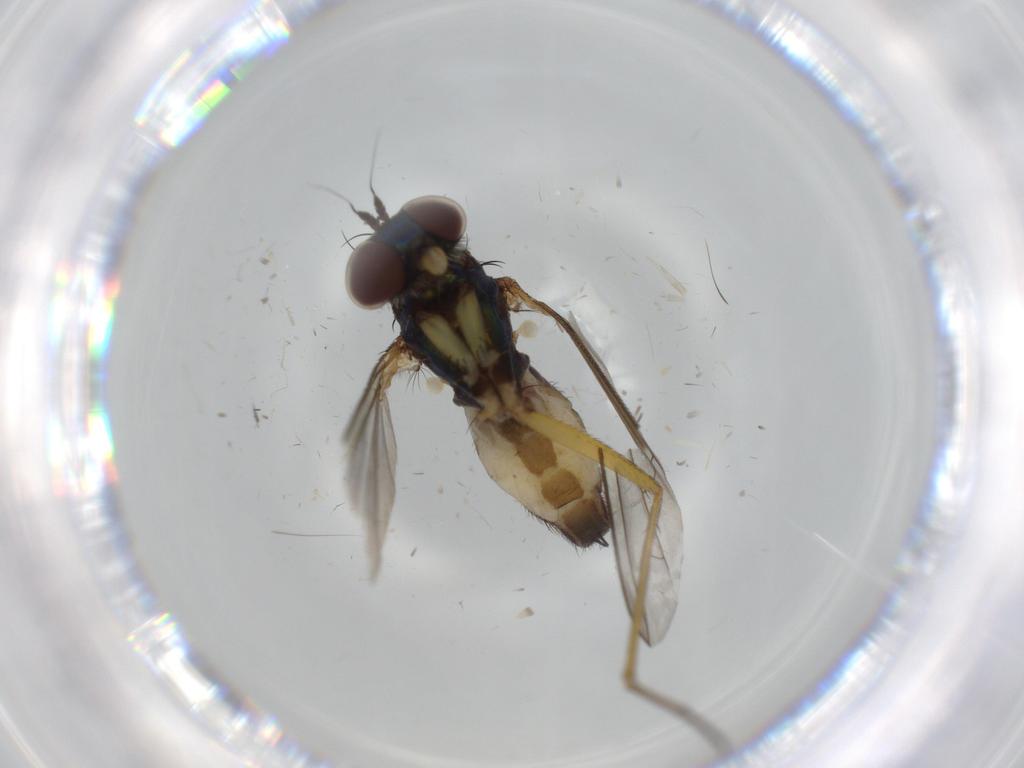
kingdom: Animalia
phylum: Arthropoda
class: Insecta
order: Diptera
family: Dolichopodidae
